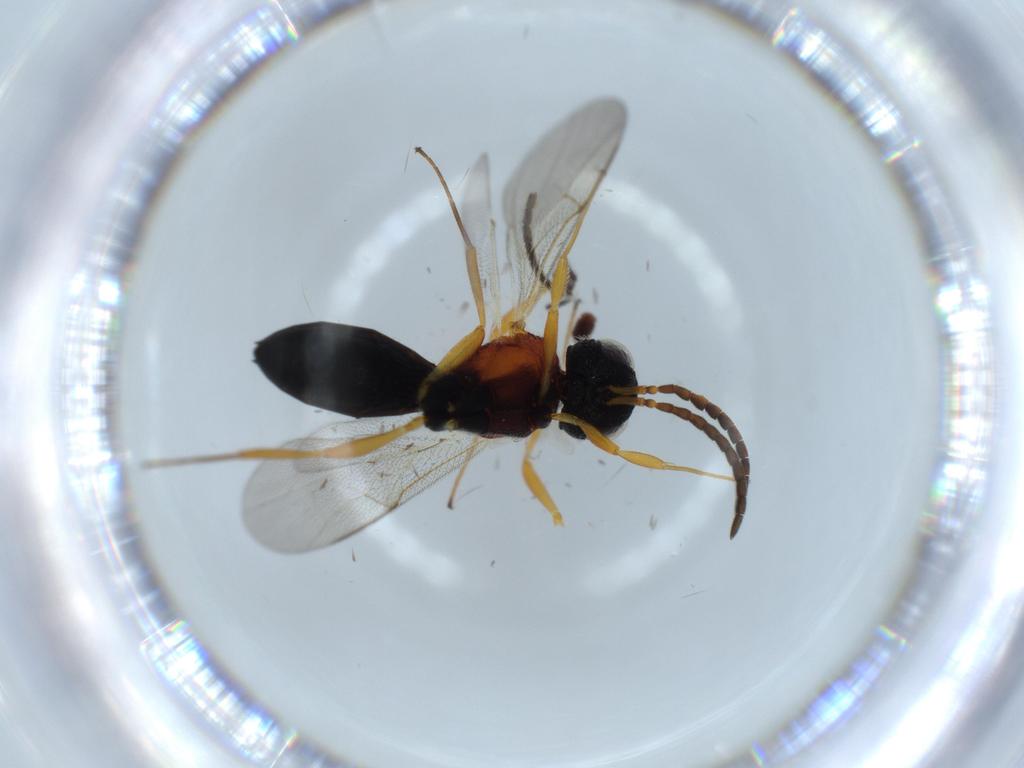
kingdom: Animalia
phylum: Arthropoda
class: Insecta
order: Hymenoptera
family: Scelionidae
